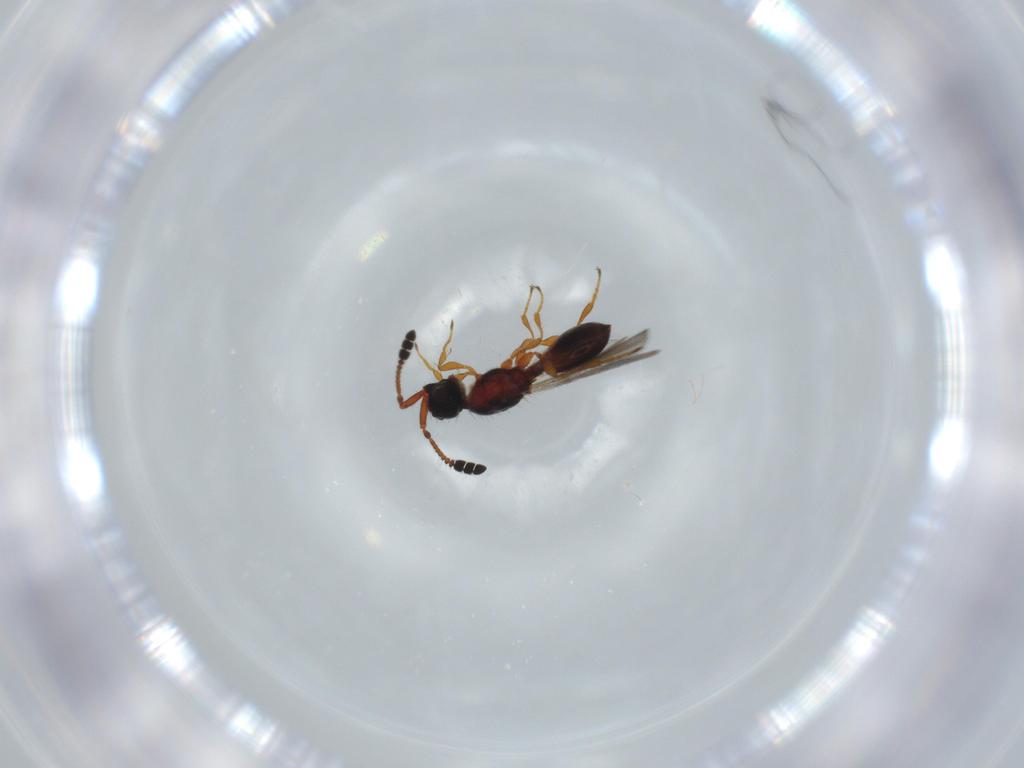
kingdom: Animalia
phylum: Arthropoda
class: Insecta
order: Hymenoptera
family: Diapriidae
